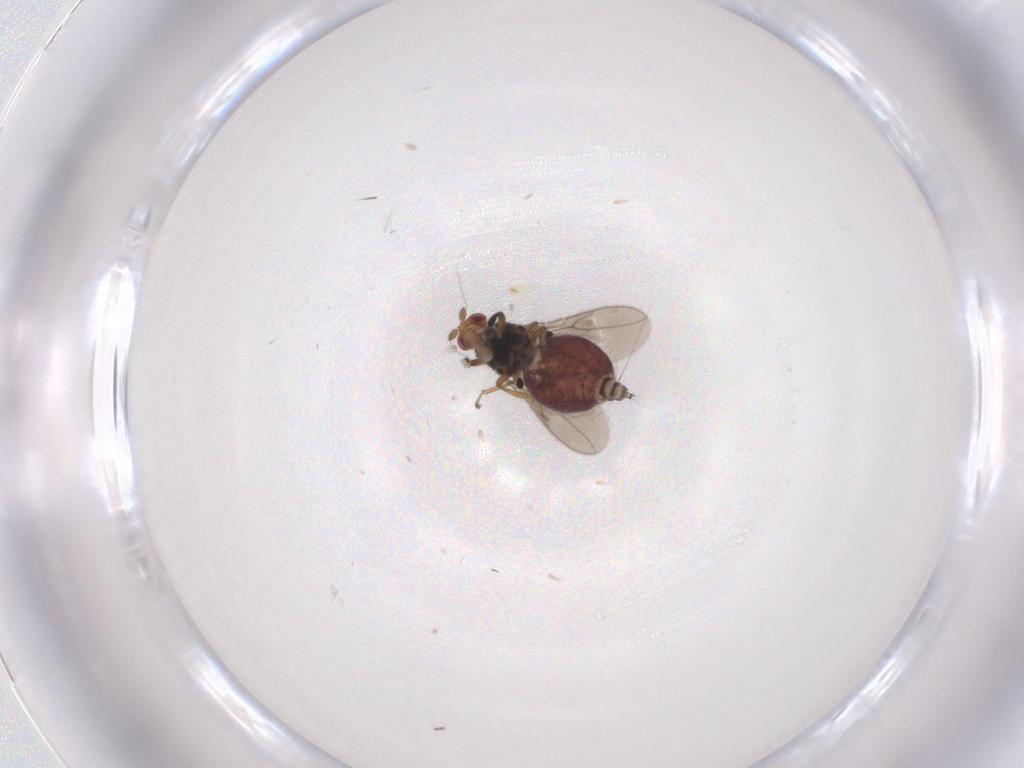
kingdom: Animalia
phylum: Arthropoda
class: Insecta
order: Diptera
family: Sphaeroceridae
